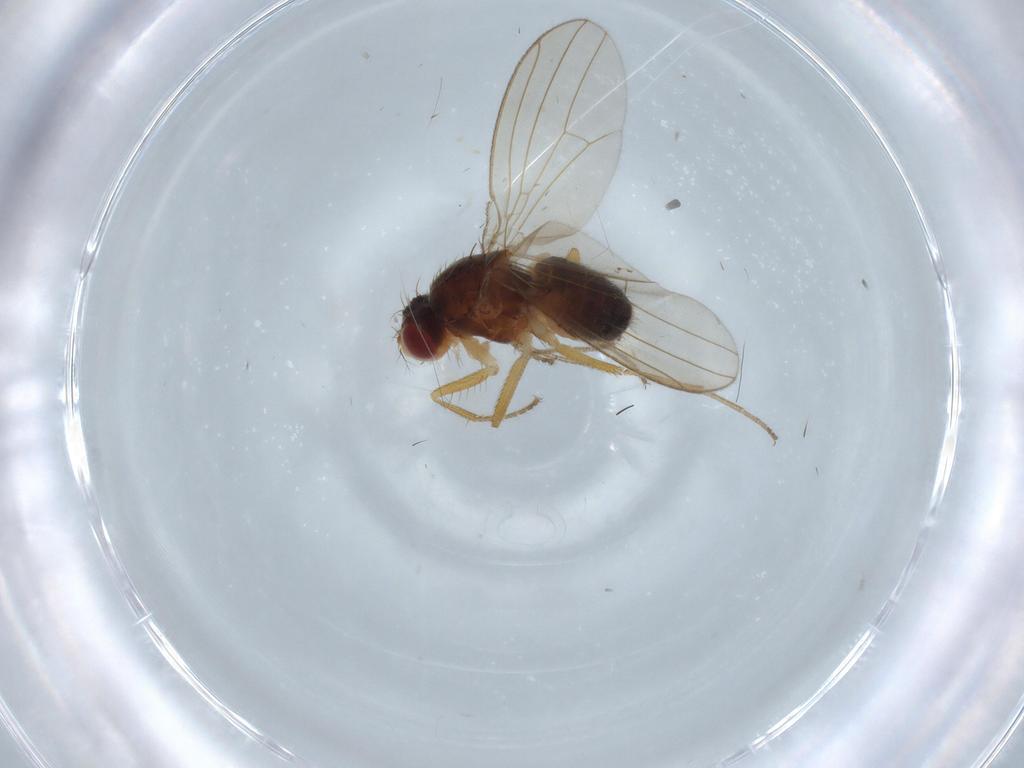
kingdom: Animalia
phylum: Arthropoda
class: Insecta
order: Diptera
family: Drosophilidae
